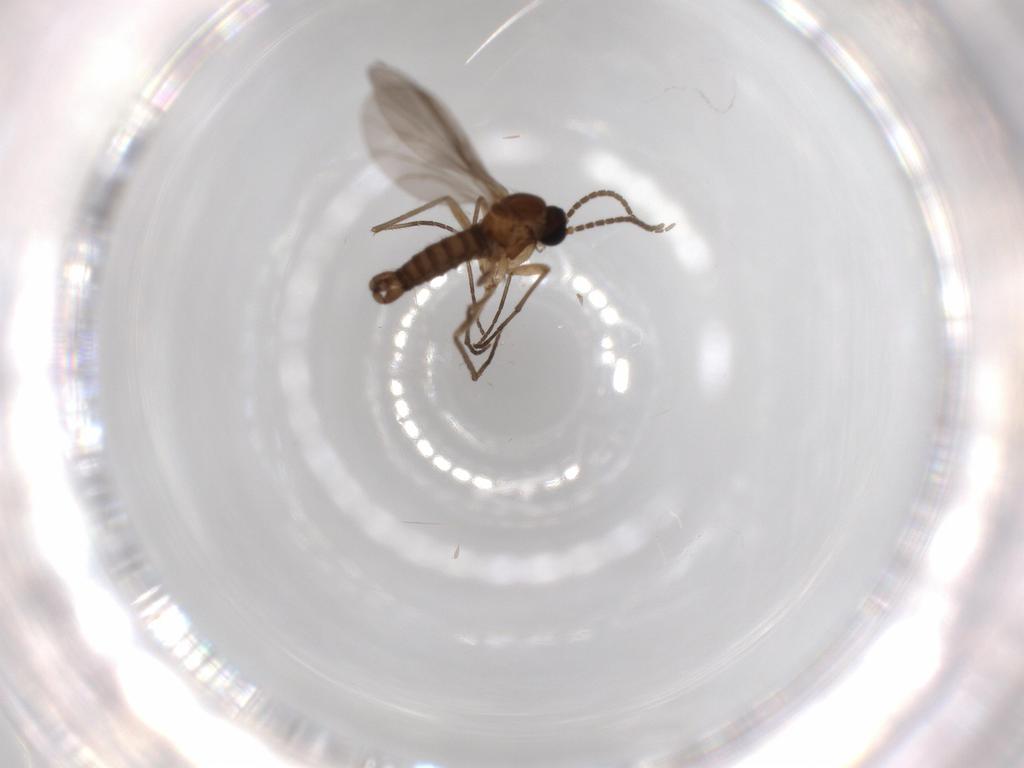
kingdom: Animalia
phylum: Arthropoda
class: Insecta
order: Diptera
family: Sciaridae
